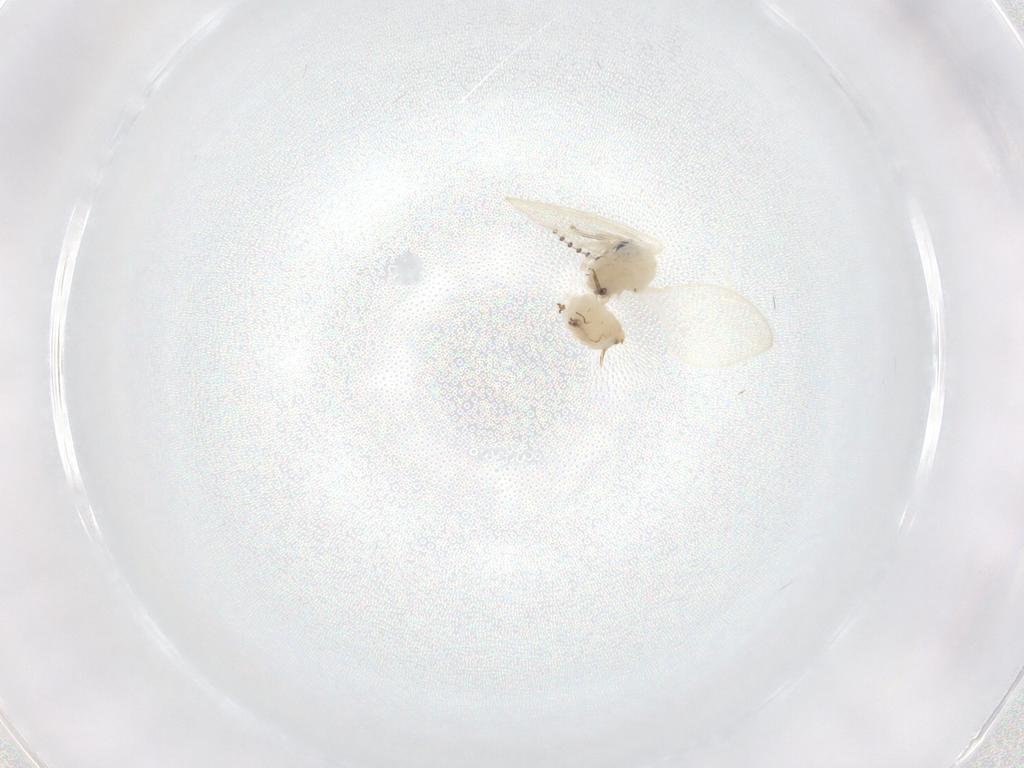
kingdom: Animalia
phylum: Arthropoda
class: Insecta
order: Diptera
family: Psychodidae
